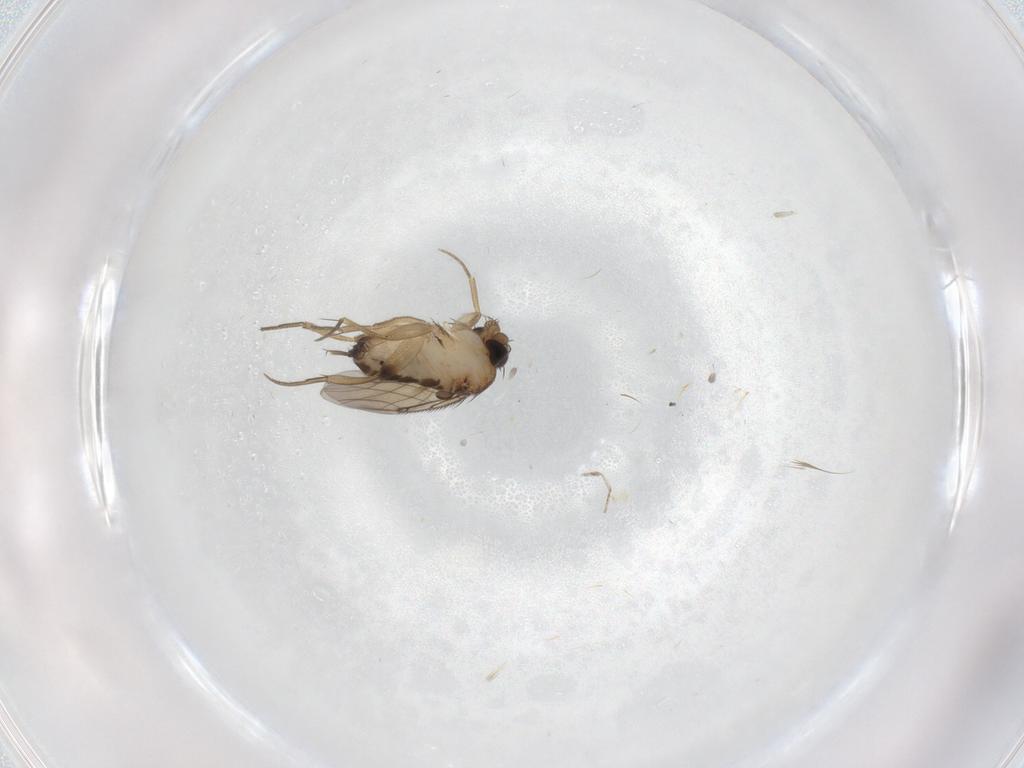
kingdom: Animalia
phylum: Arthropoda
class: Insecta
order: Diptera
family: Phoridae
